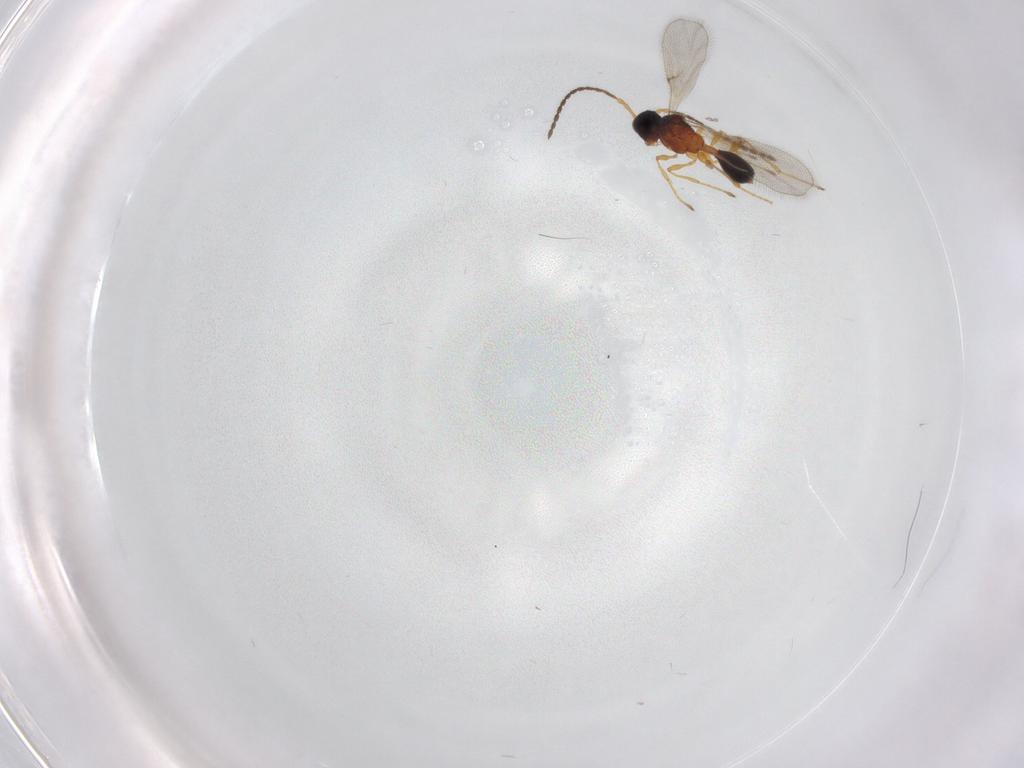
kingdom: Animalia
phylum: Arthropoda
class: Insecta
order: Hymenoptera
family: Diapriidae
